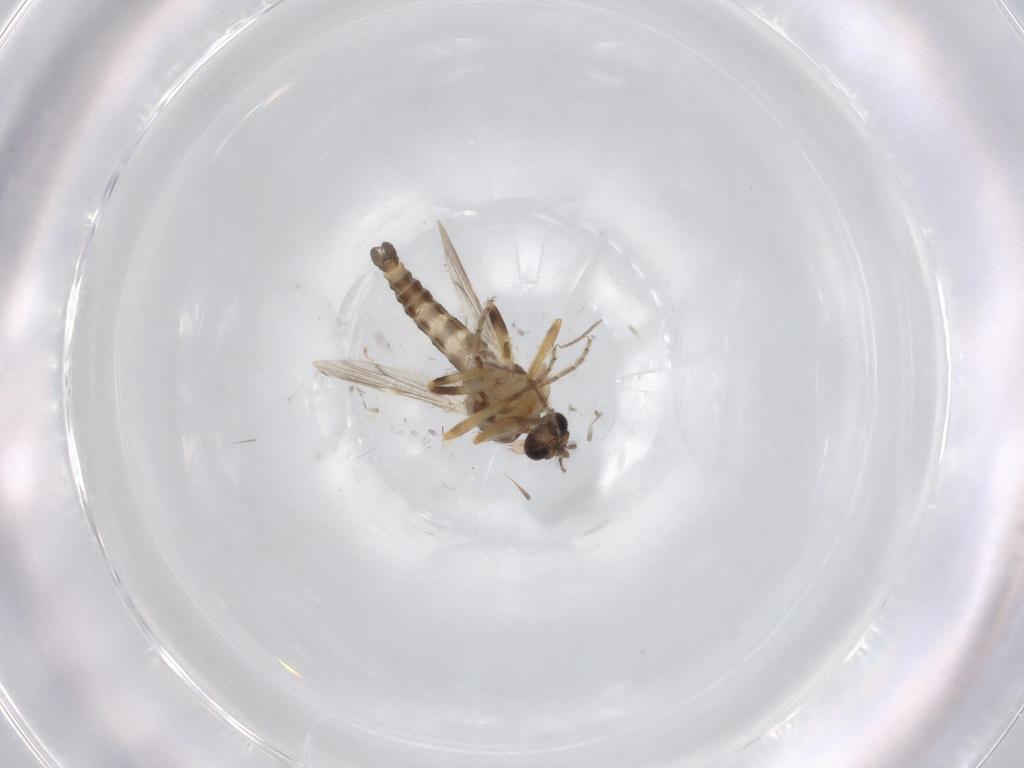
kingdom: Animalia
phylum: Arthropoda
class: Insecta
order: Diptera
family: Ceratopogonidae
